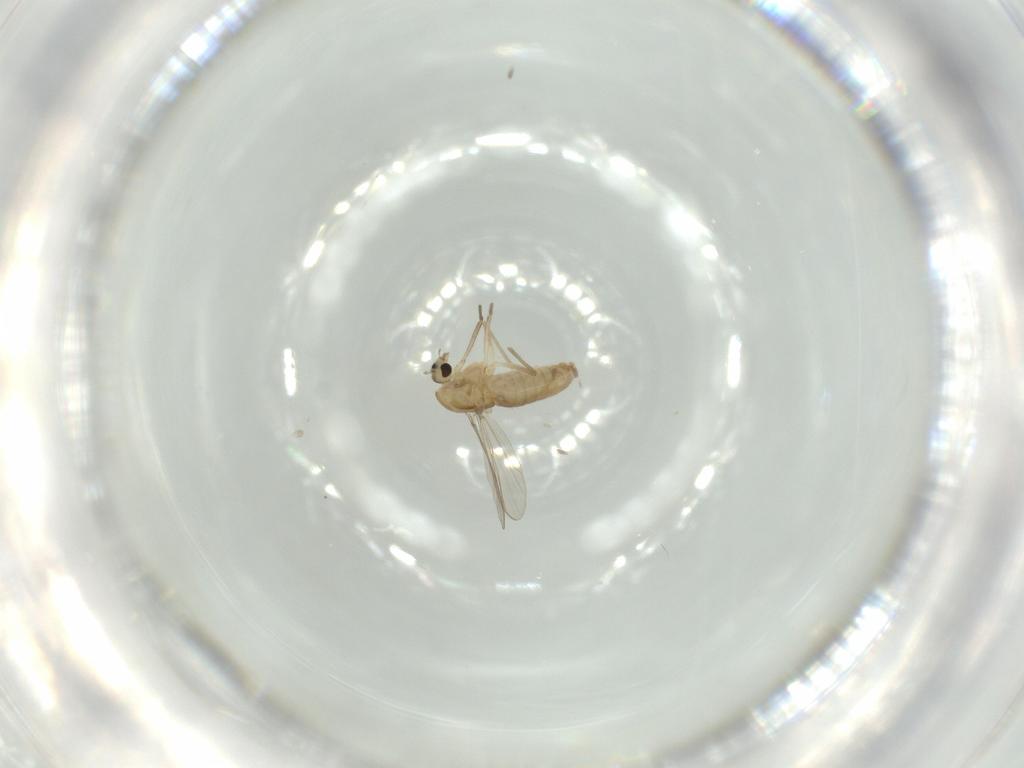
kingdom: Animalia
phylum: Arthropoda
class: Insecta
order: Diptera
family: Chironomidae
